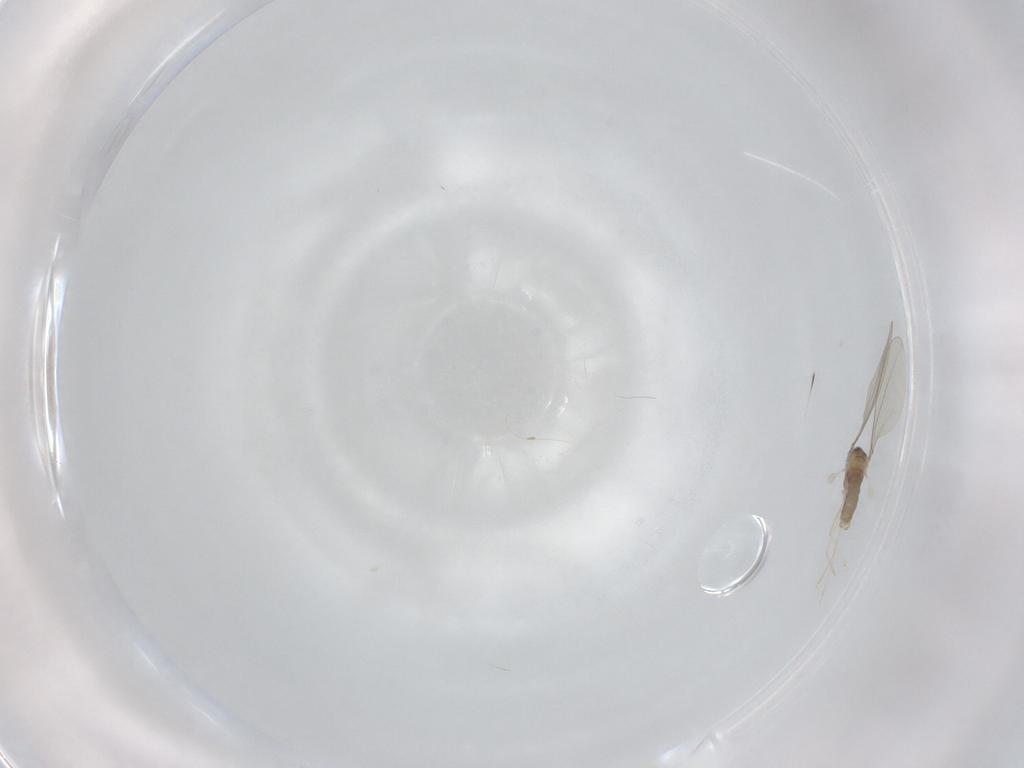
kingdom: Animalia
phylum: Arthropoda
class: Insecta
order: Diptera
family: Cecidomyiidae
